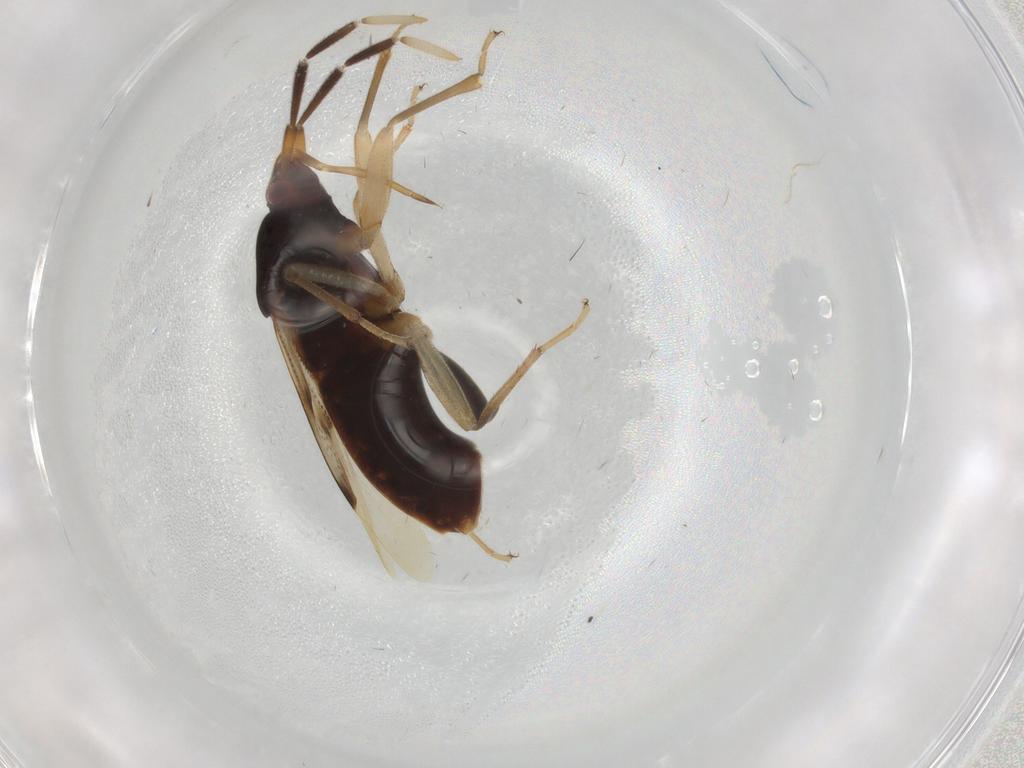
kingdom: Animalia
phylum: Arthropoda
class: Insecta
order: Hemiptera
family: Rhyparochromidae
